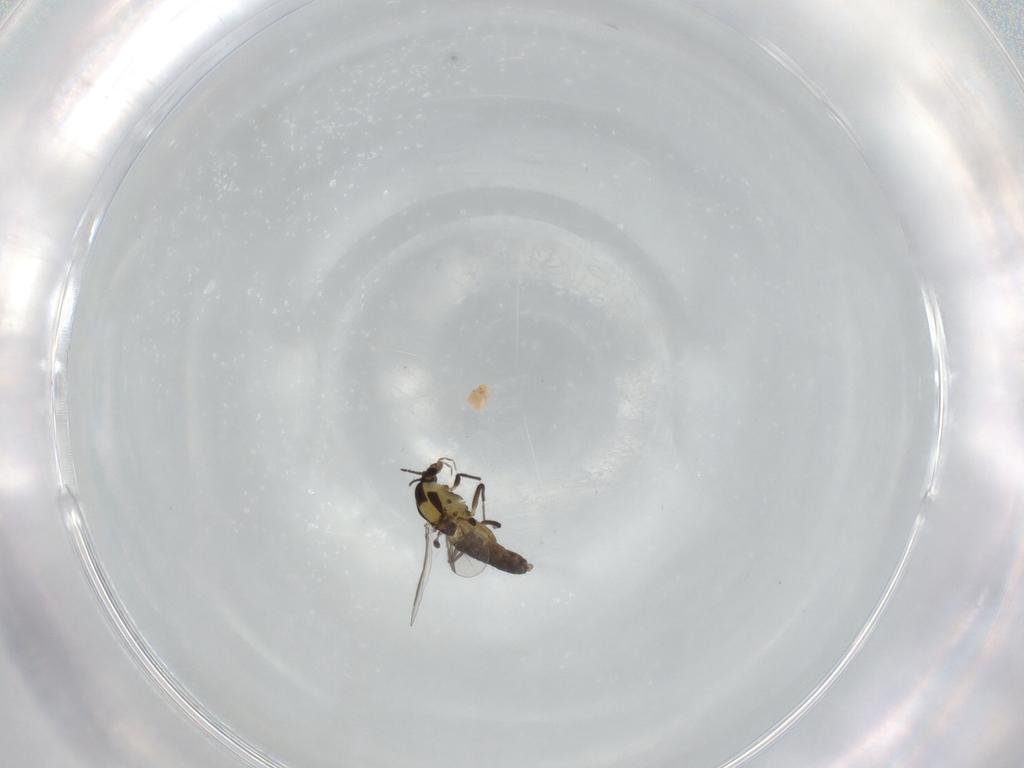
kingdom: Animalia
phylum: Arthropoda
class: Insecta
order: Diptera
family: Chironomidae
